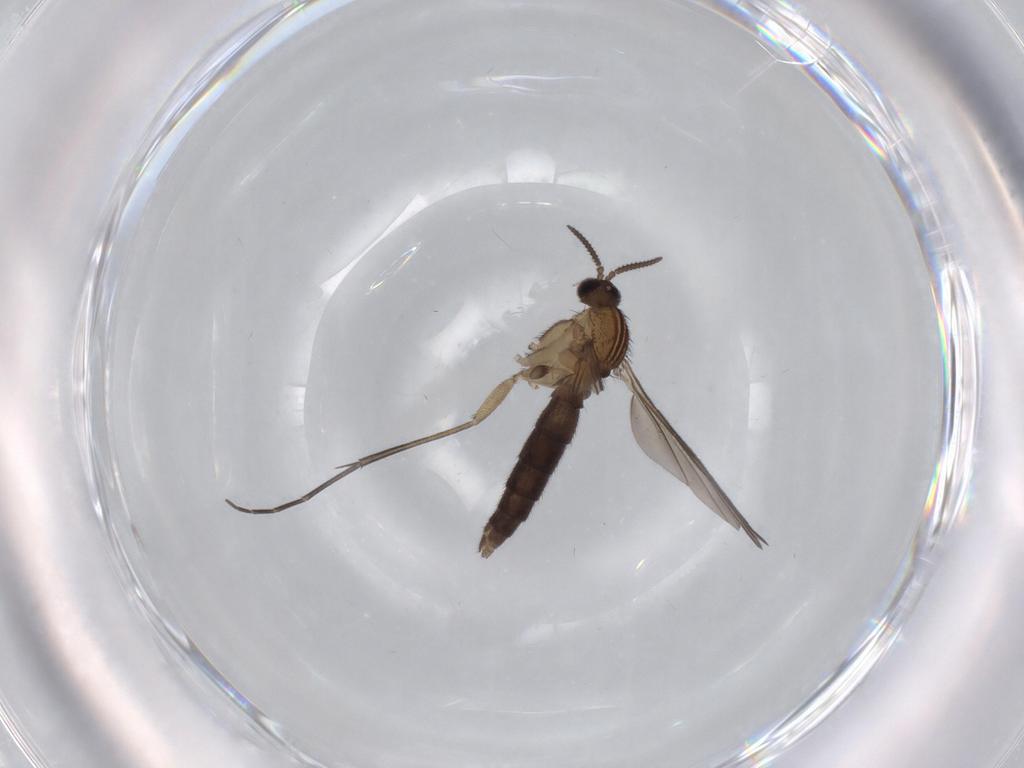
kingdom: Animalia
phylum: Arthropoda
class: Insecta
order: Diptera
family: Keroplatidae
